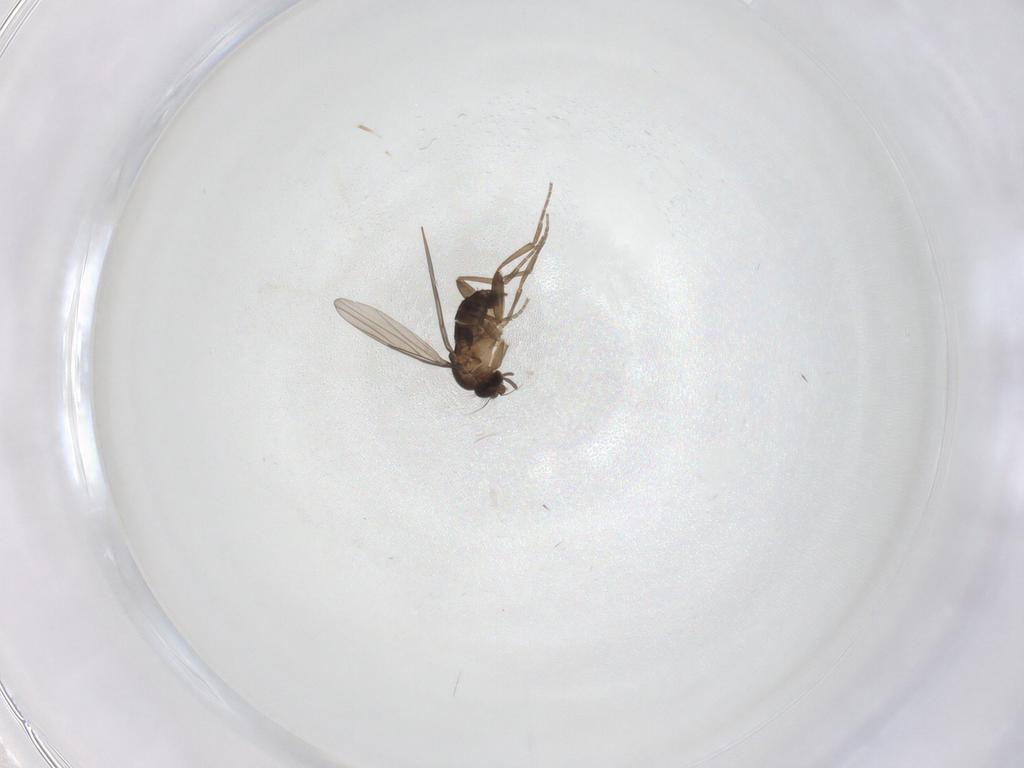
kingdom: Animalia
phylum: Arthropoda
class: Insecta
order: Diptera
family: Phoridae
